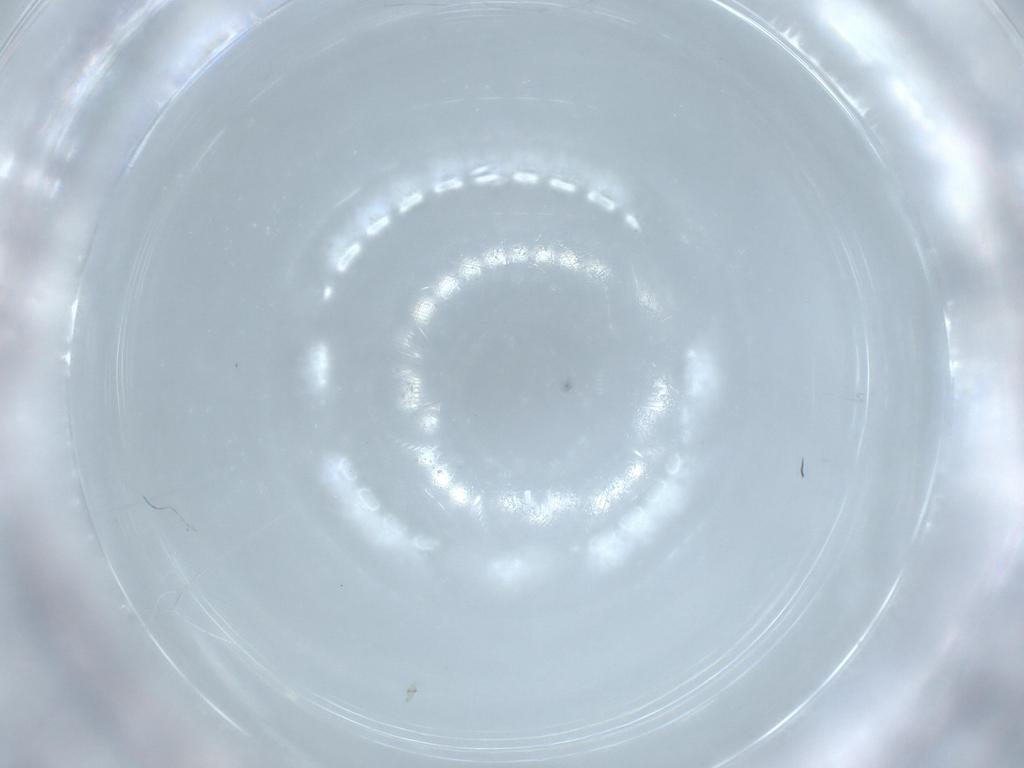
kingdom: Animalia
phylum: Arthropoda
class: Insecta
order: Hymenoptera
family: Aphelinidae
